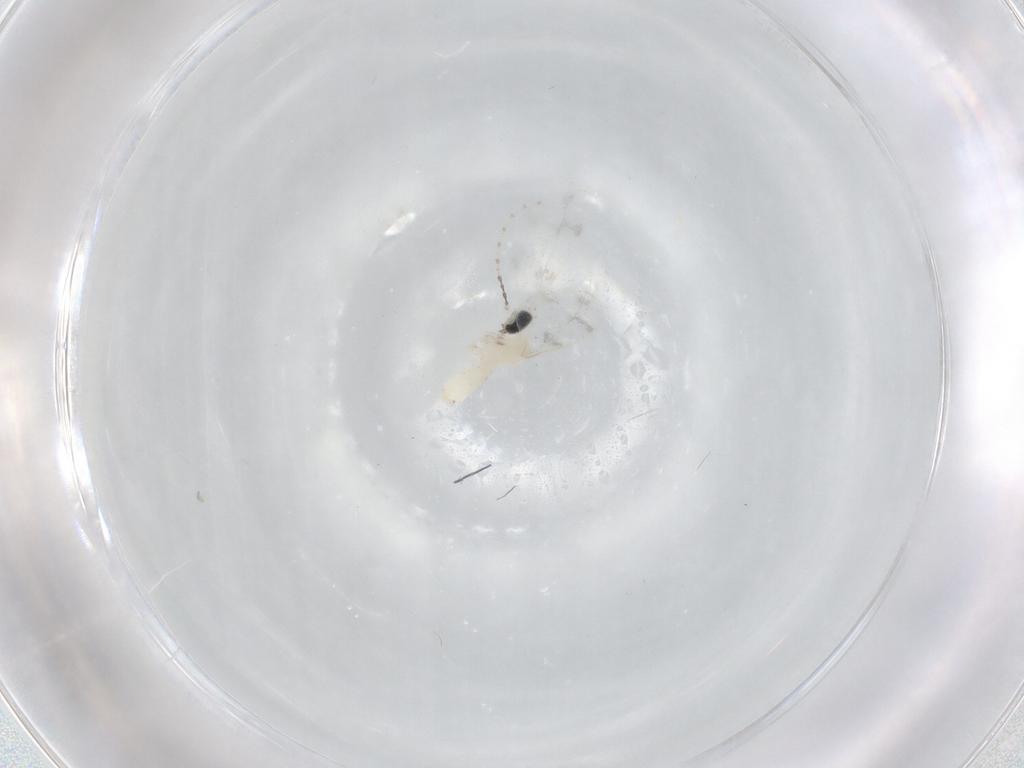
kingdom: Animalia
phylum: Arthropoda
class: Insecta
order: Diptera
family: Cecidomyiidae
